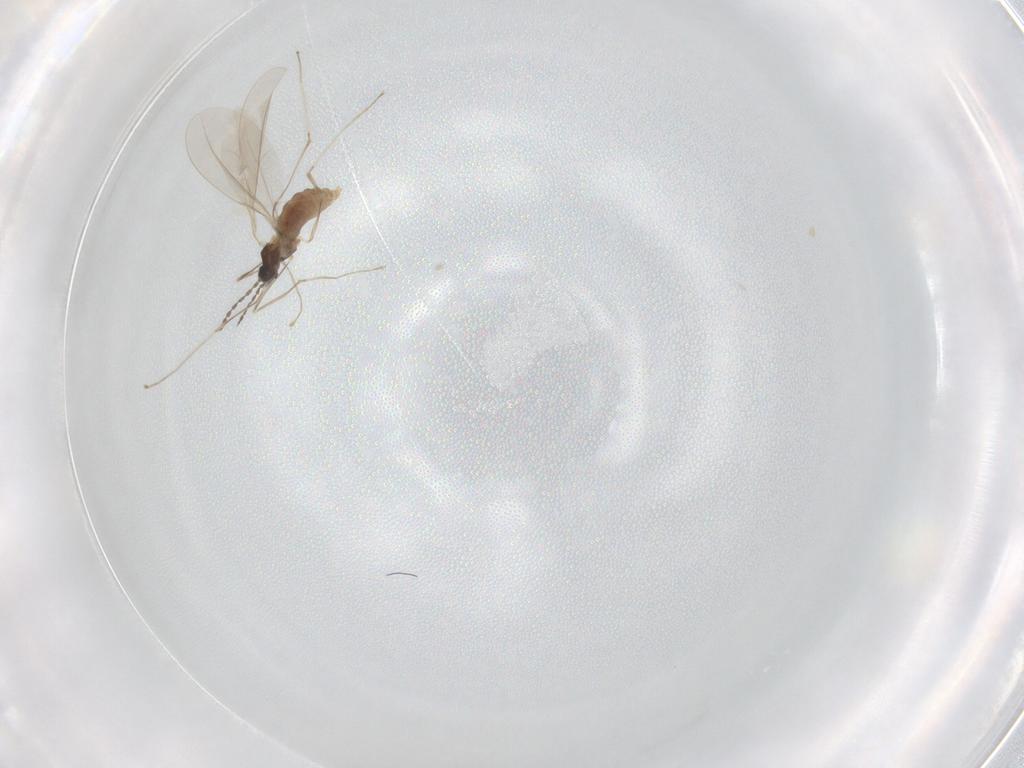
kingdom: Animalia
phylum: Arthropoda
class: Insecta
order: Diptera
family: Cecidomyiidae
